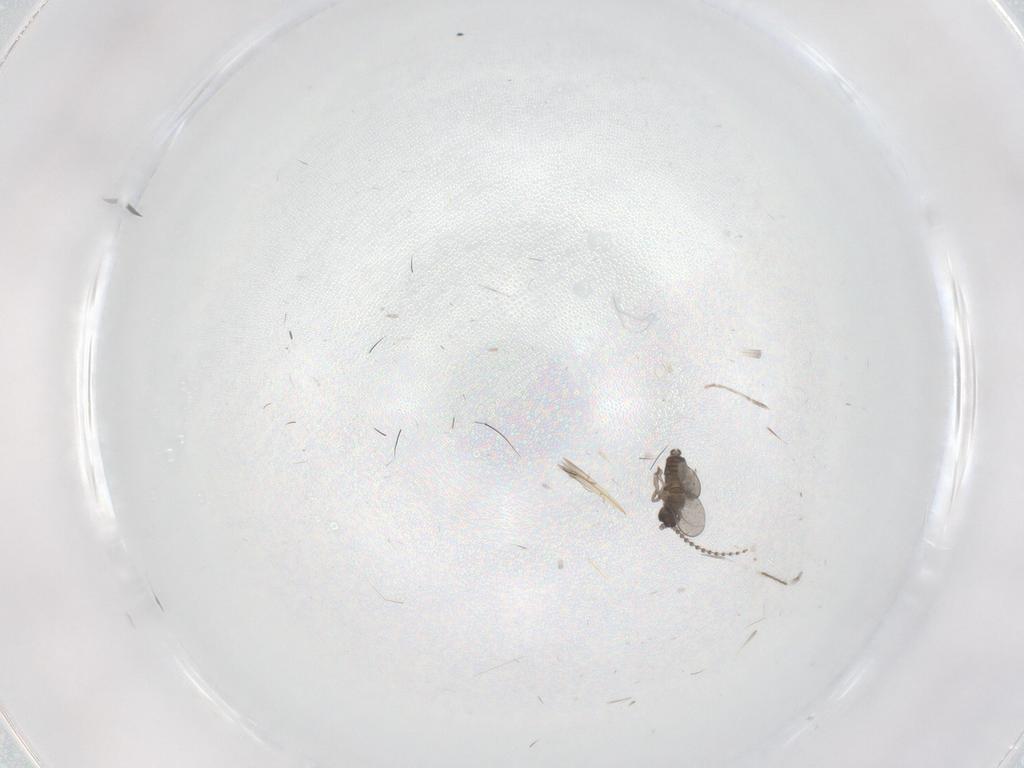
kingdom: Animalia
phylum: Arthropoda
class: Insecta
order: Diptera
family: Cecidomyiidae
